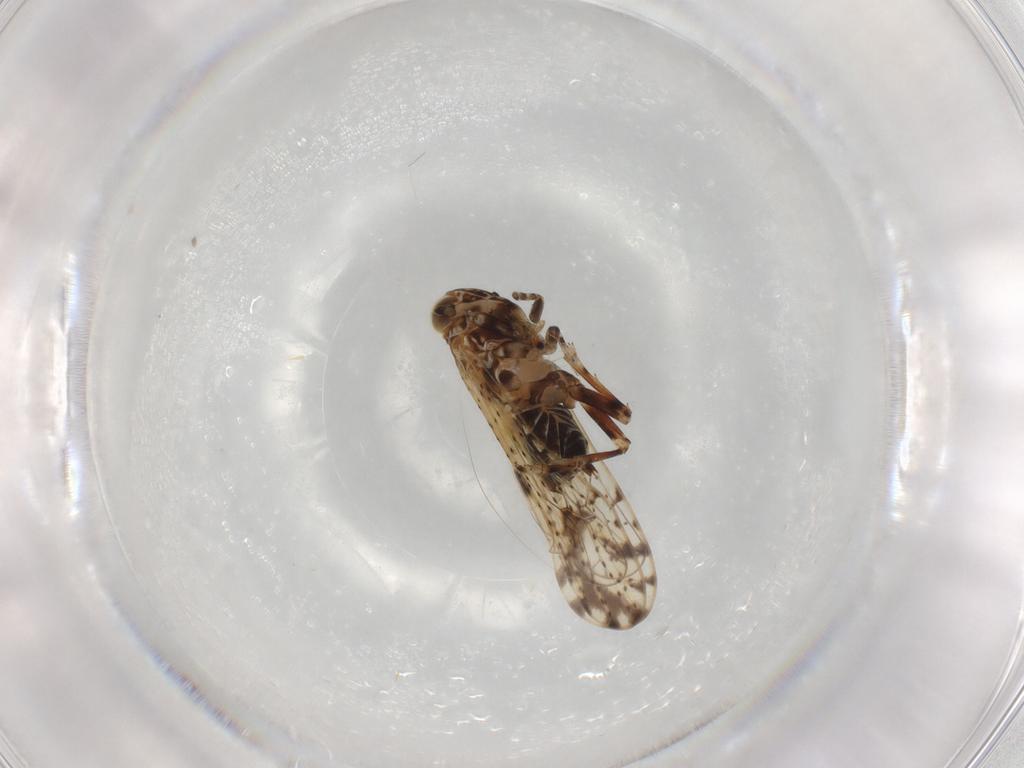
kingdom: Animalia
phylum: Arthropoda
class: Insecta
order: Hemiptera
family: Delphacidae
